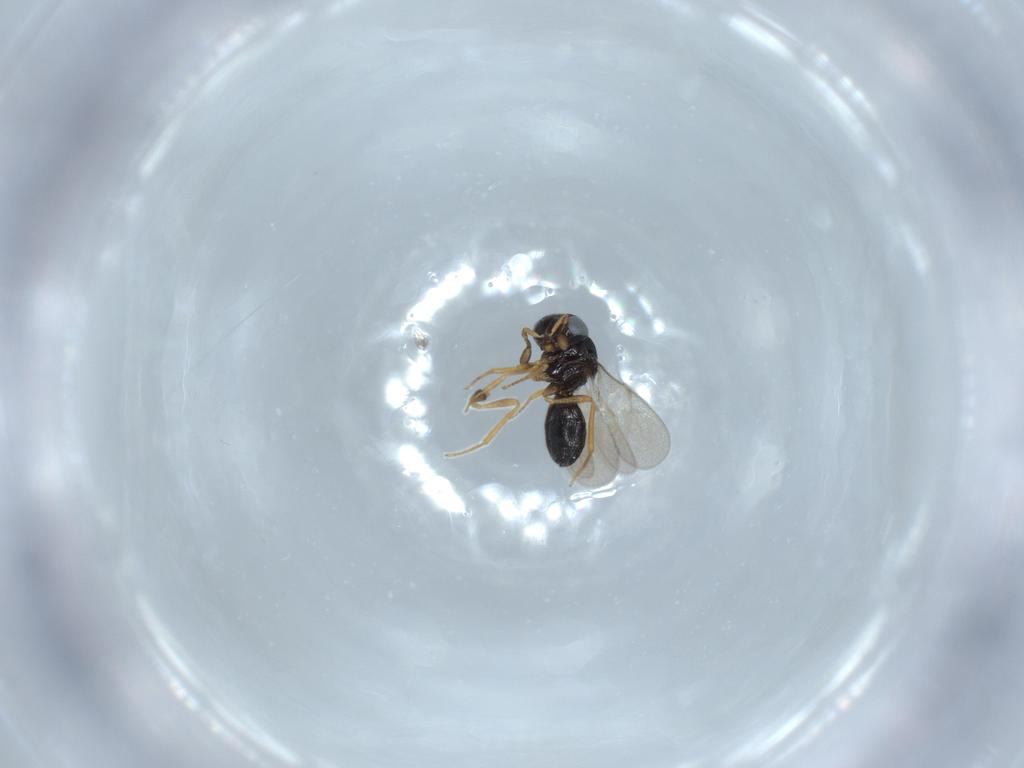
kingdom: Animalia
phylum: Arthropoda
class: Insecta
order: Hymenoptera
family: Scelionidae
